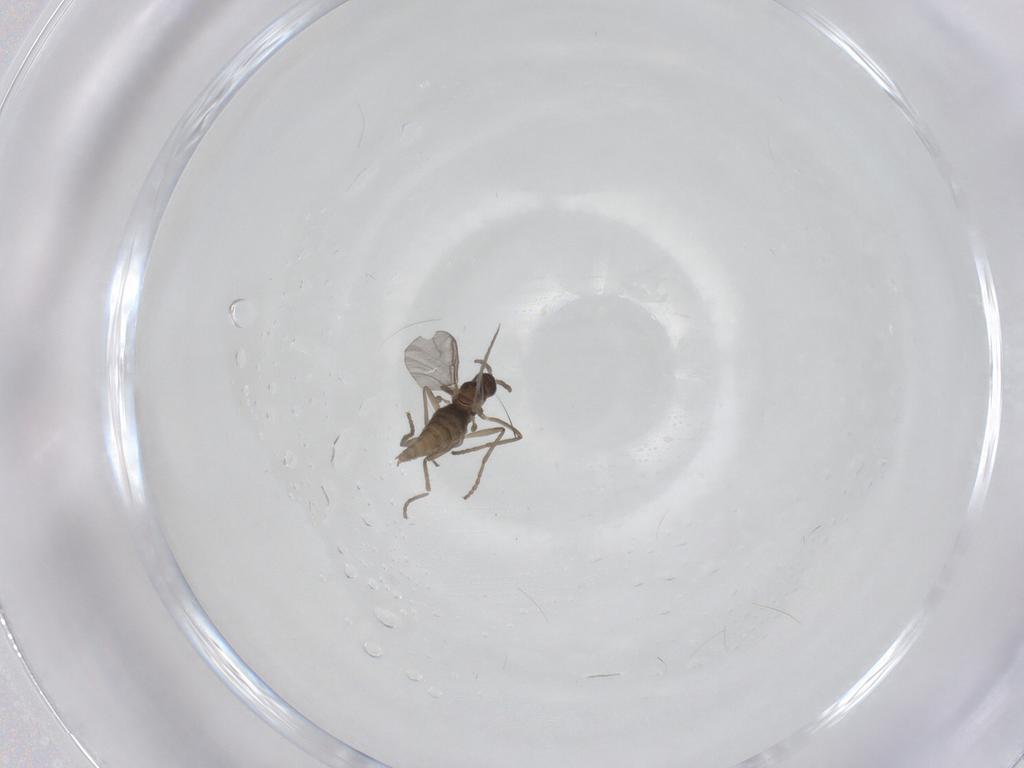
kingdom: Animalia
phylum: Arthropoda
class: Insecta
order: Diptera
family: Cecidomyiidae
